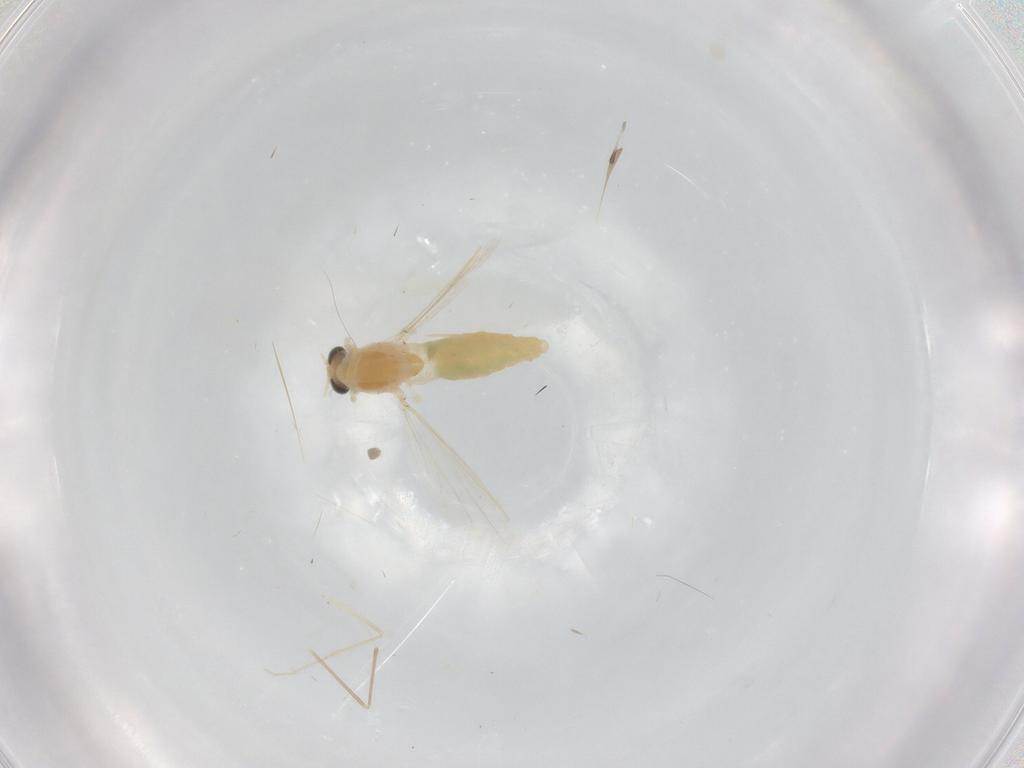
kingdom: Animalia
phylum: Arthropoda
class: Insecta
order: Diptera
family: Chironomidae
